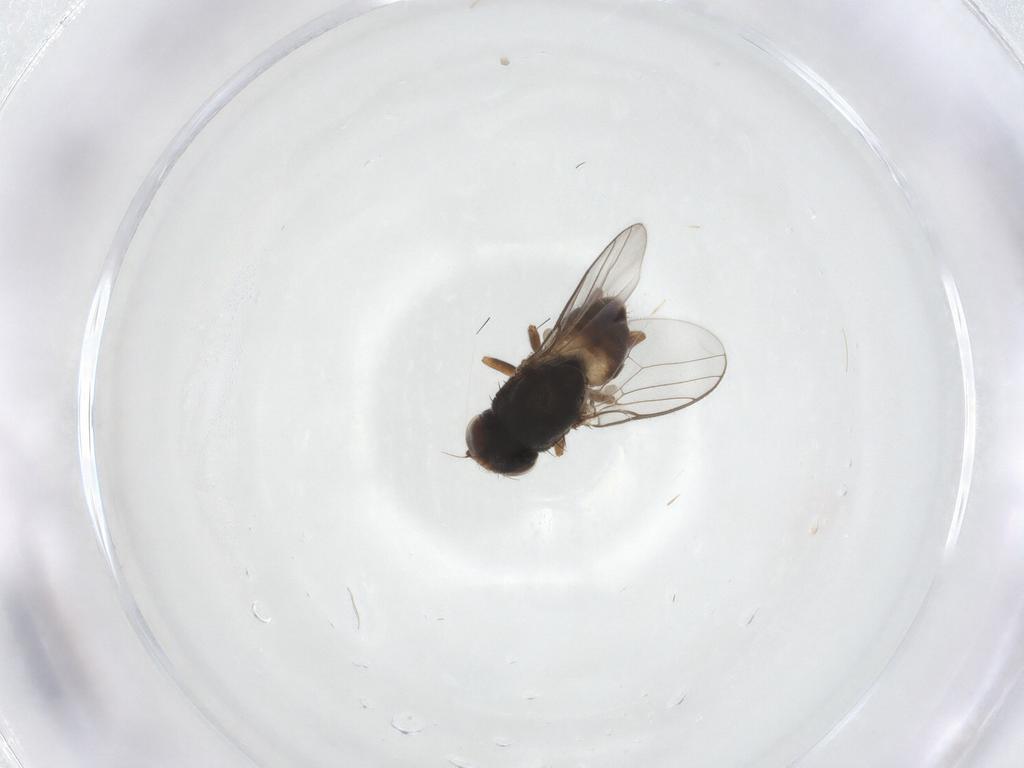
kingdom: Animalia
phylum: Arthropoda
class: Insecta
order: Diptera
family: Chloropidae
